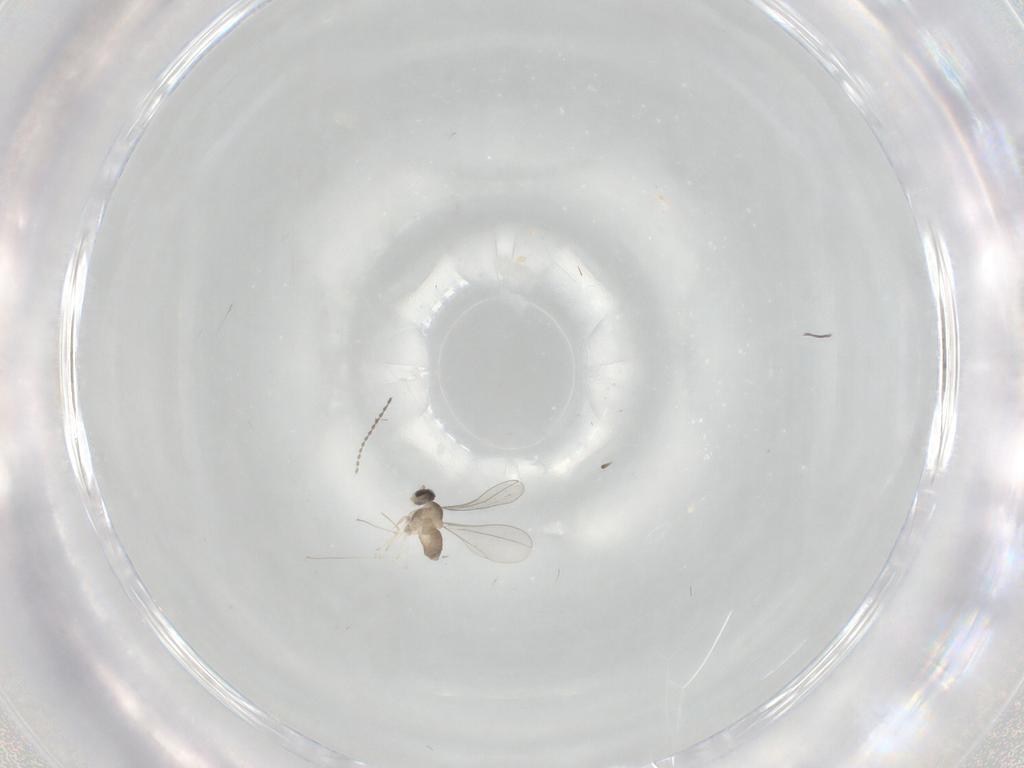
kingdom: Animalia
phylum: Arthropoda
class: Insecta
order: Diptera
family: Cecidomyiidae
